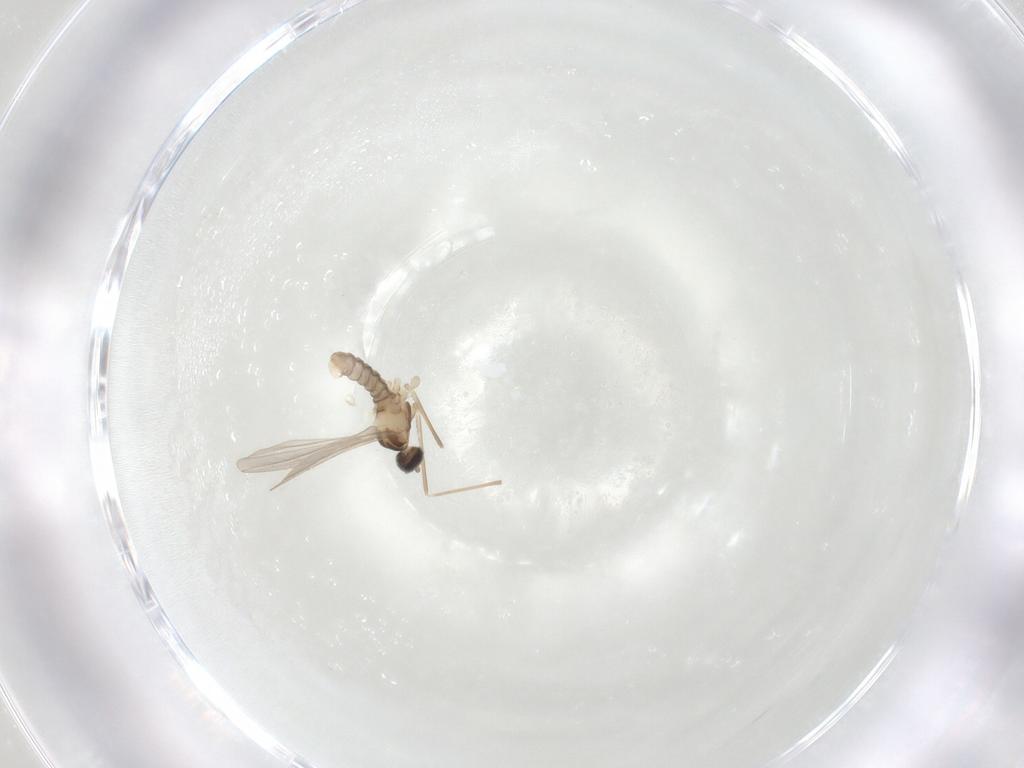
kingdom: Animalia
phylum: Arthropoda
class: Insecta
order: Diptera
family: Cecidomyiidae
